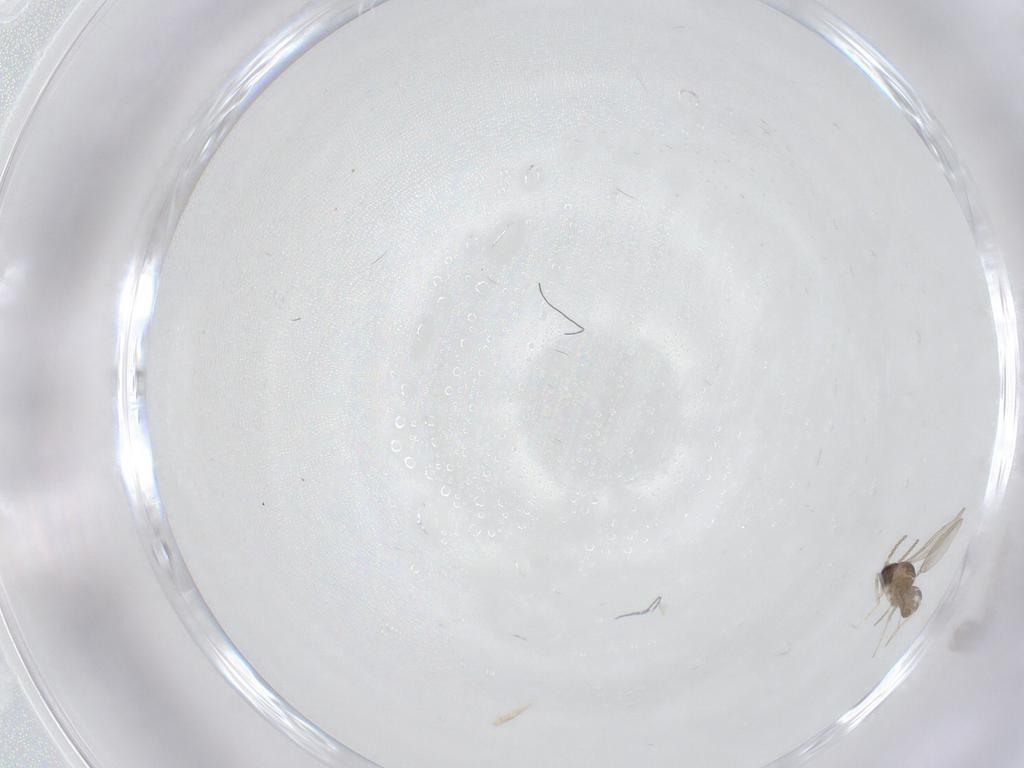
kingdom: Animalia
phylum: Arthropoda
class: Insecta
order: Diptera
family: Cecidomyiidae
